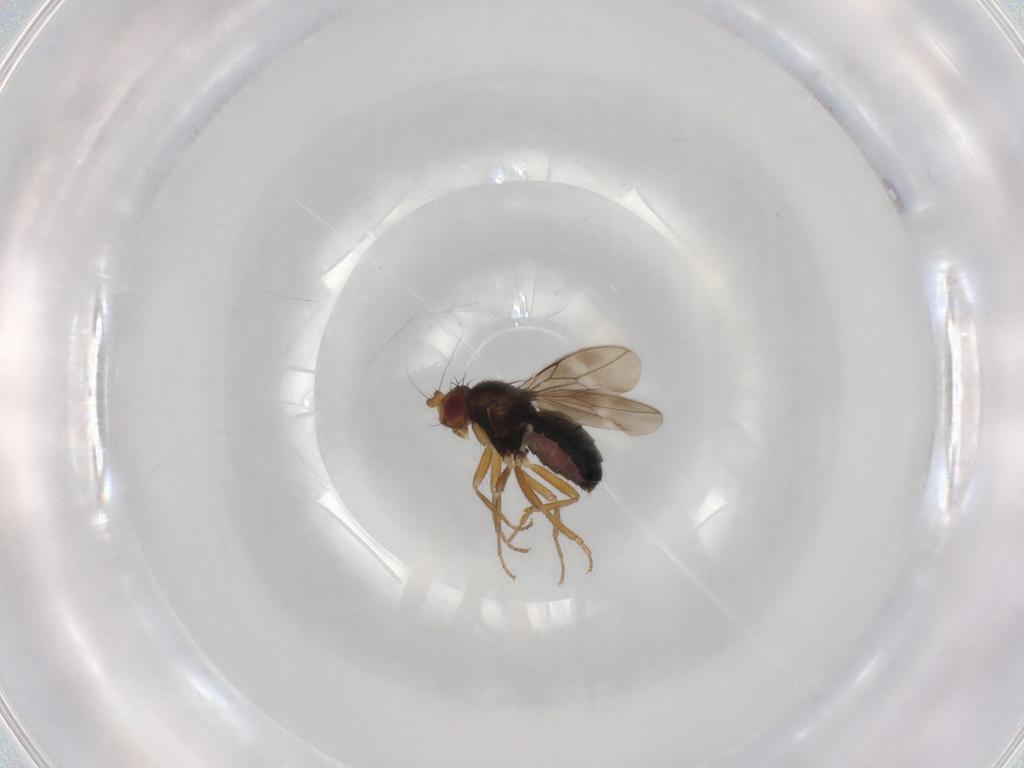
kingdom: Animalia
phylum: Arthropoda
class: Insecta
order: Diptera
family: Sphaeroceridae
